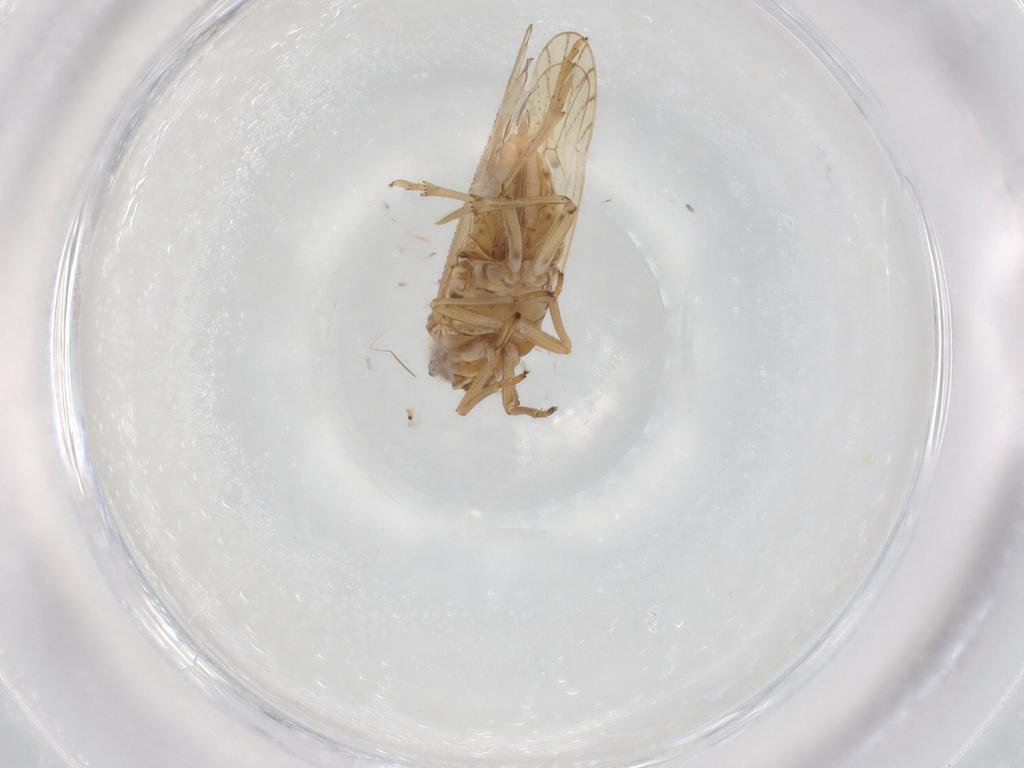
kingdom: Animalia
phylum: Arthropoda
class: Insecta
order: Hemiptera
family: Delphacidae
